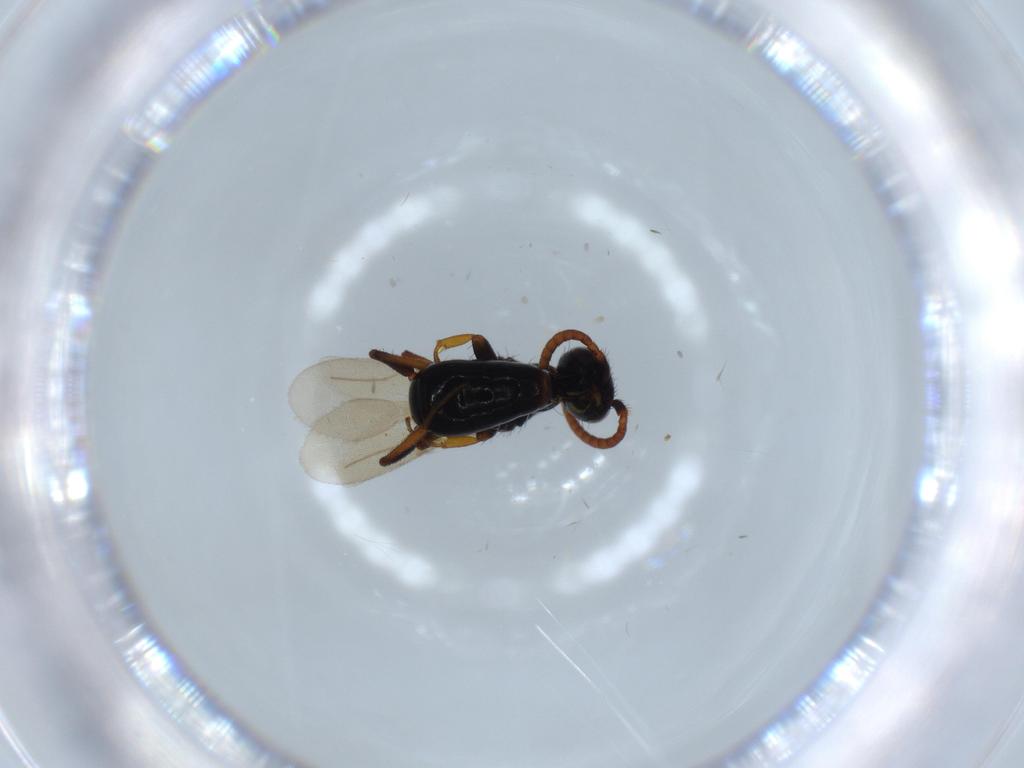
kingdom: Animalia
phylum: Arthropoda
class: Insecta
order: Hymenoptera
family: Bethylidae
